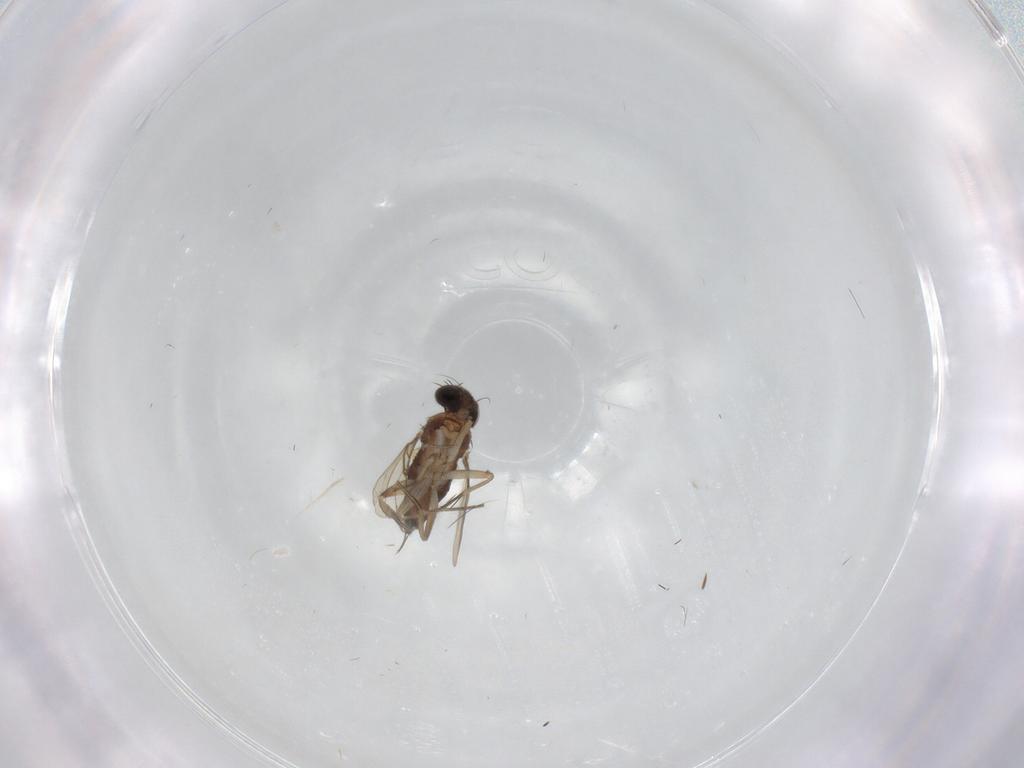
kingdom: Animalia
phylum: Arthropoda
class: Insecta
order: Diptera
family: Phoridae
